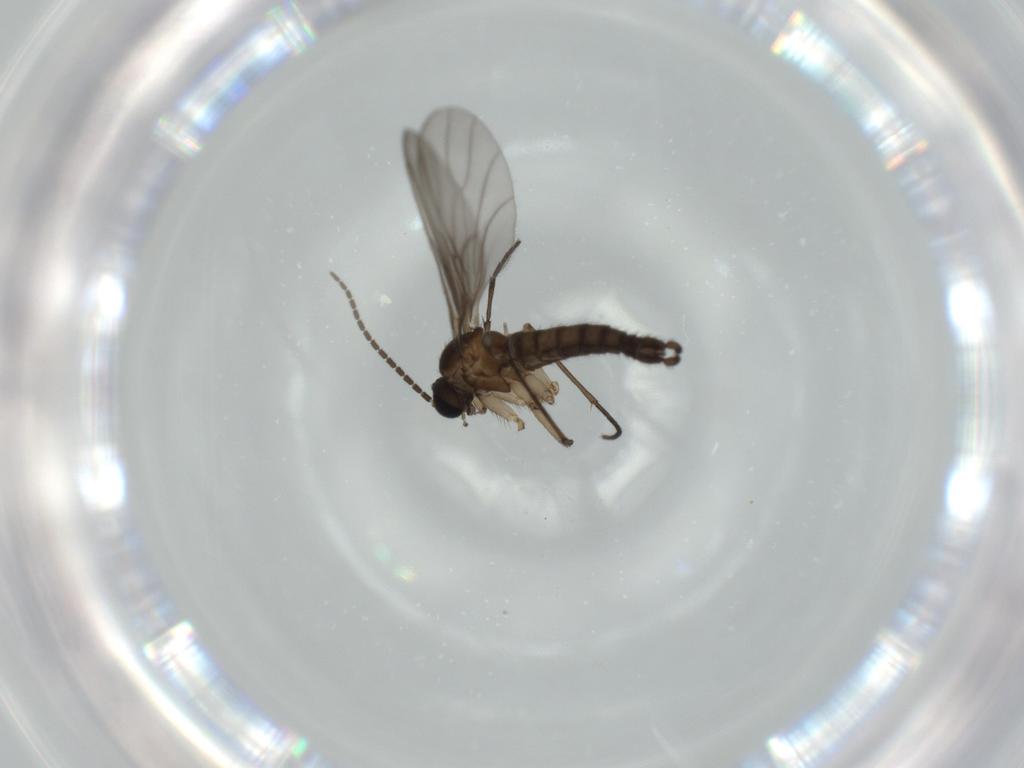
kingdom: Animalia
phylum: Arthropoda
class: Insecta
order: Diptera
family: Sciaridae
